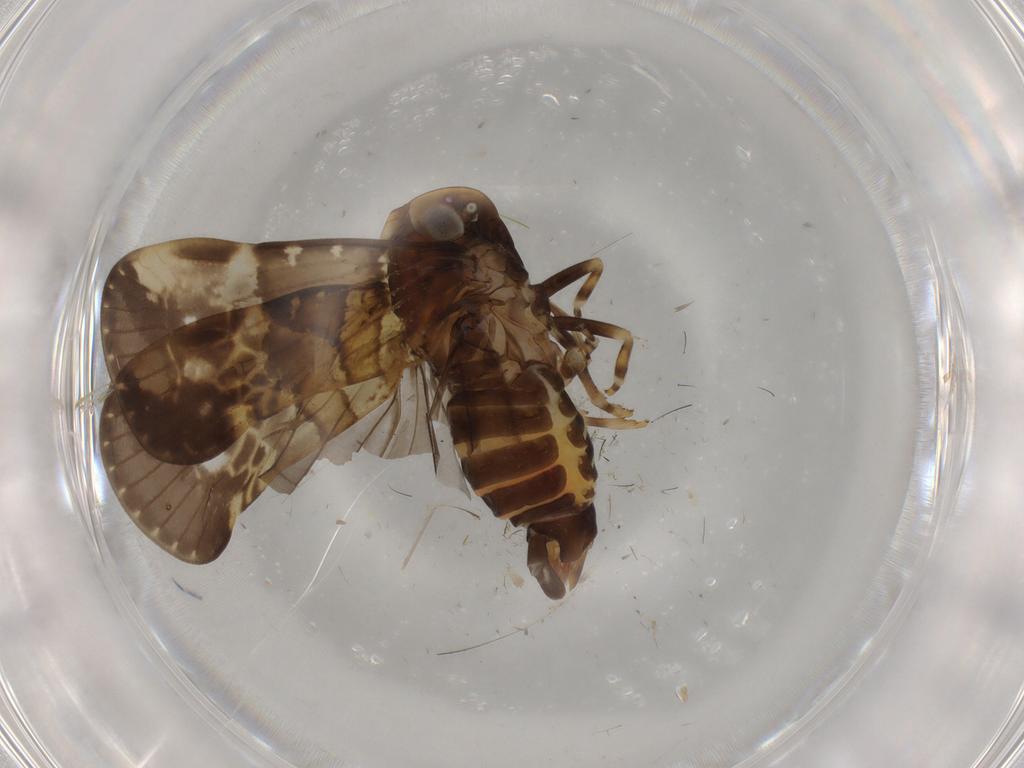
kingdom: Animalia
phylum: Arthropoda
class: Insecta
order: Hemiptera
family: Cixiidae
